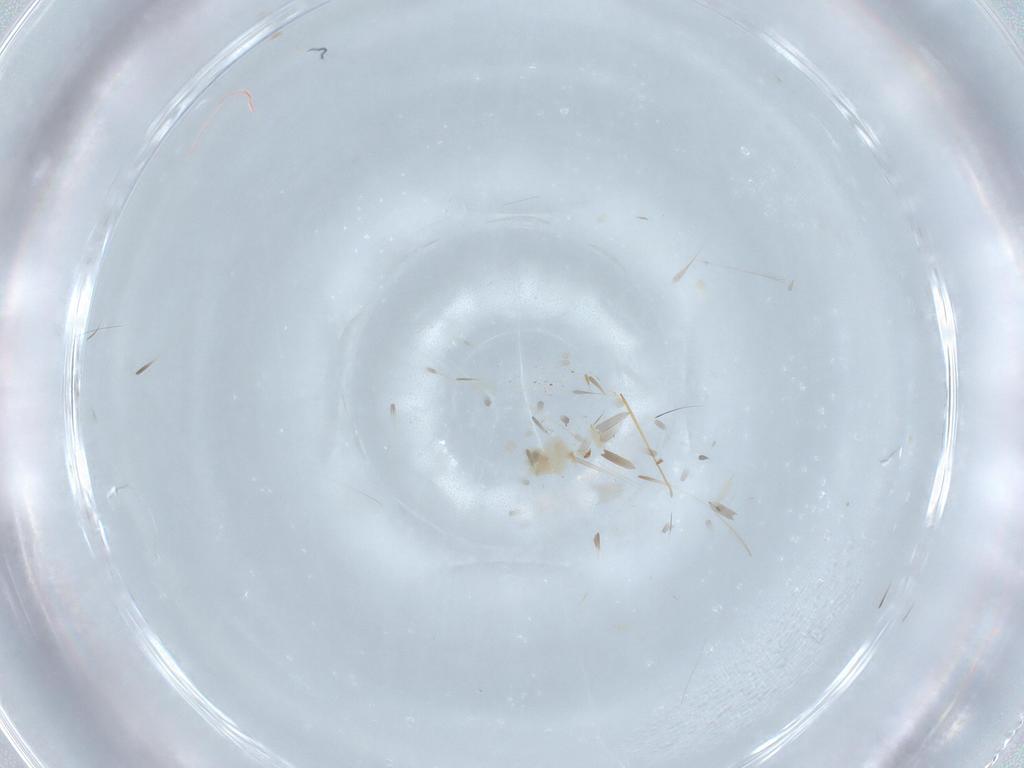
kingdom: Animalia
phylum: Arthropoda
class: Insecta
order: Diptera
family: Chironomidae
